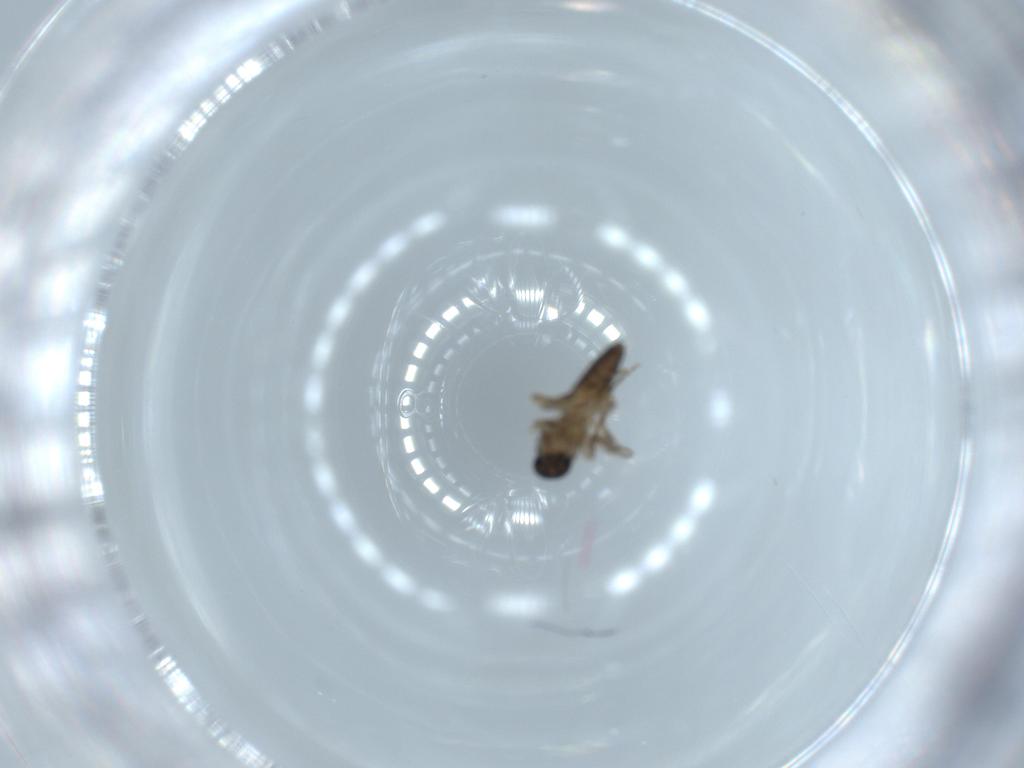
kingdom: Animalia
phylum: Arthropoda
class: Insecta
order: Diptera
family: Ceratopogonidae
